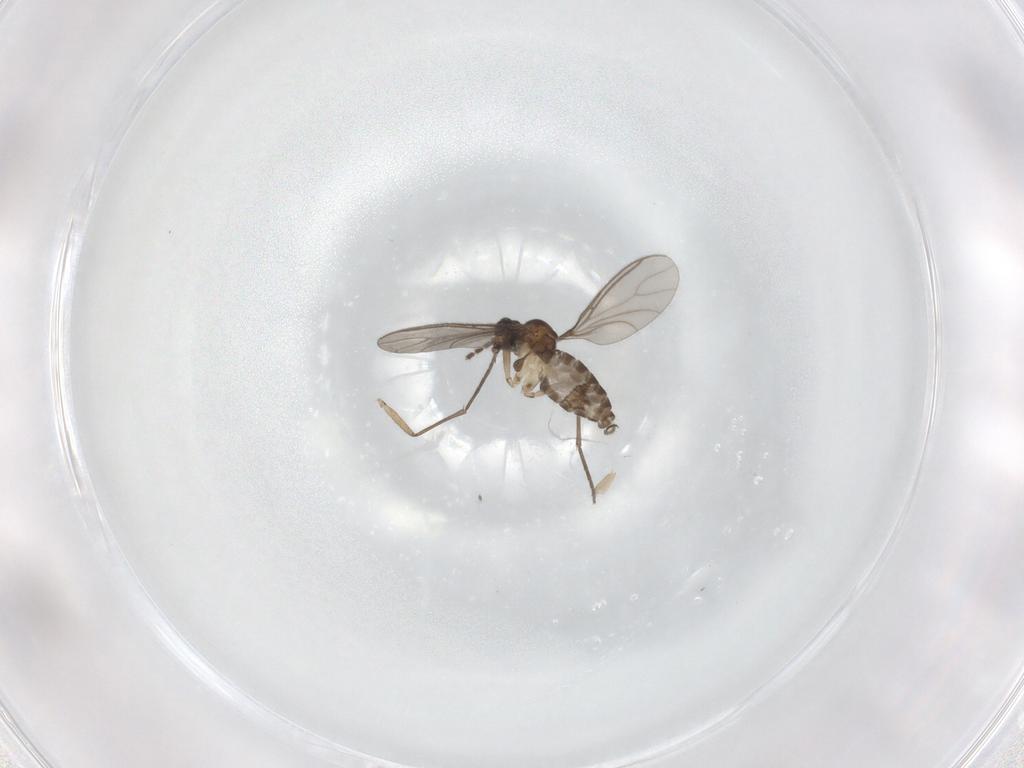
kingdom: Animalia
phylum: Arthropoda
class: Insecta
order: Diptera
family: Sciaridae
